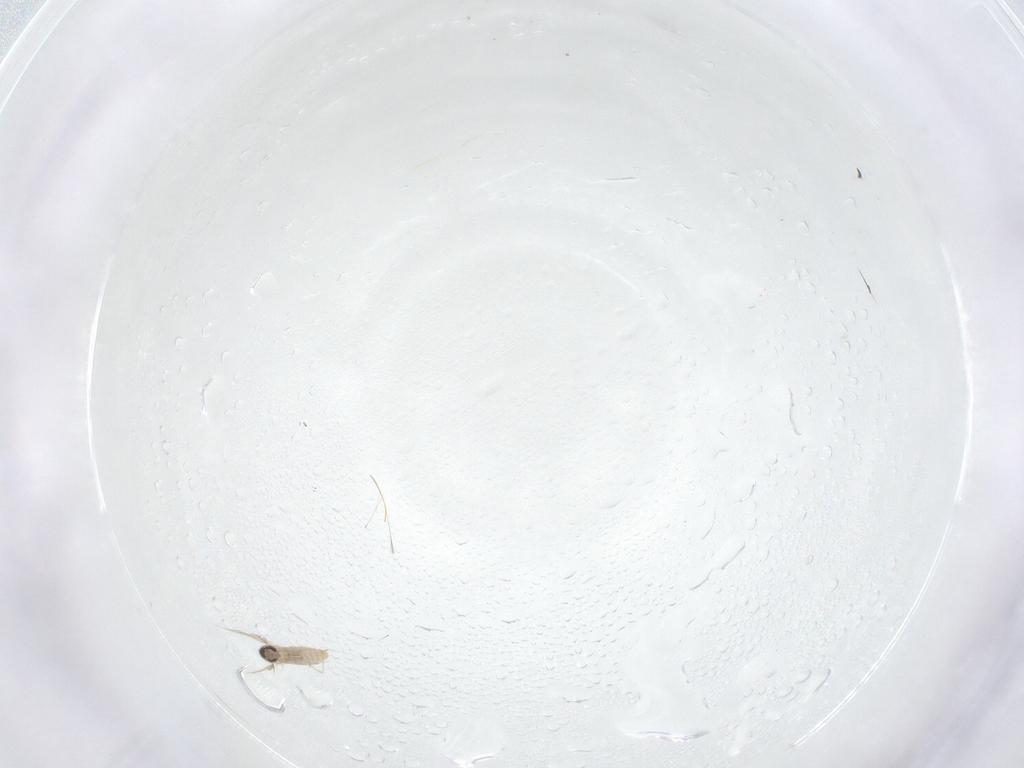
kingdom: Animalia
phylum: Arthropoda
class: Insecta
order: Diptera
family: Ceratopogonidae
